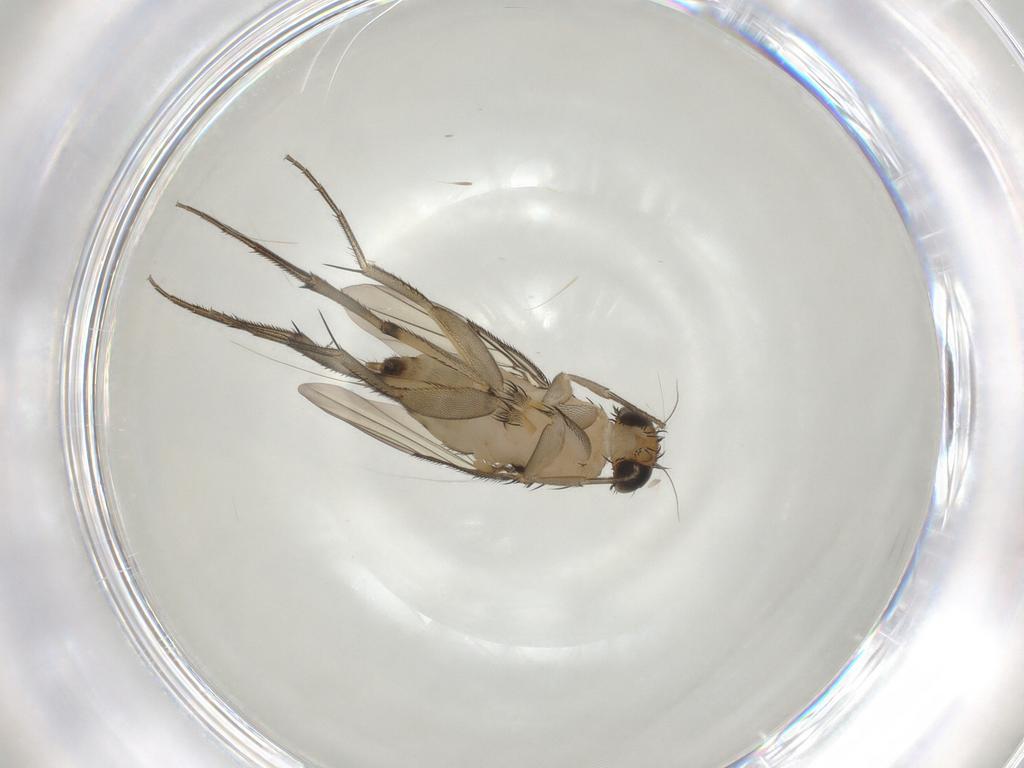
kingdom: Animalia
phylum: Arthropoda
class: Insecta
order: Diptera
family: Phoridae
